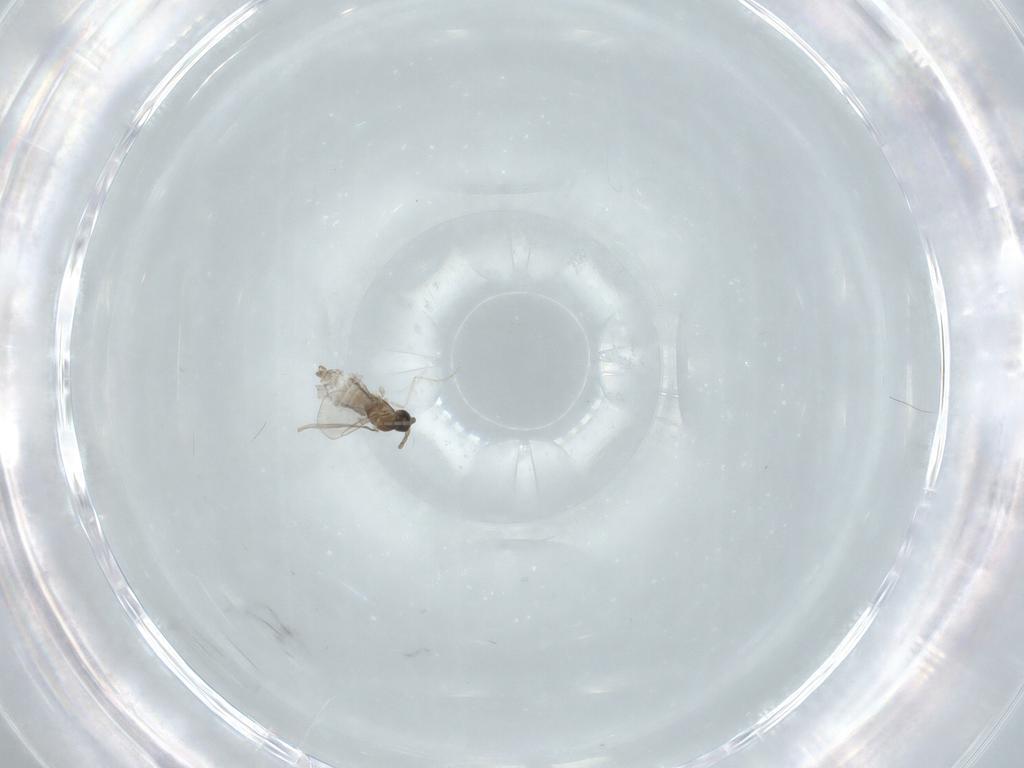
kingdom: Animalia
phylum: Arthropoda
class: Insecta
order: Diptera
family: Cecidomyiidae
